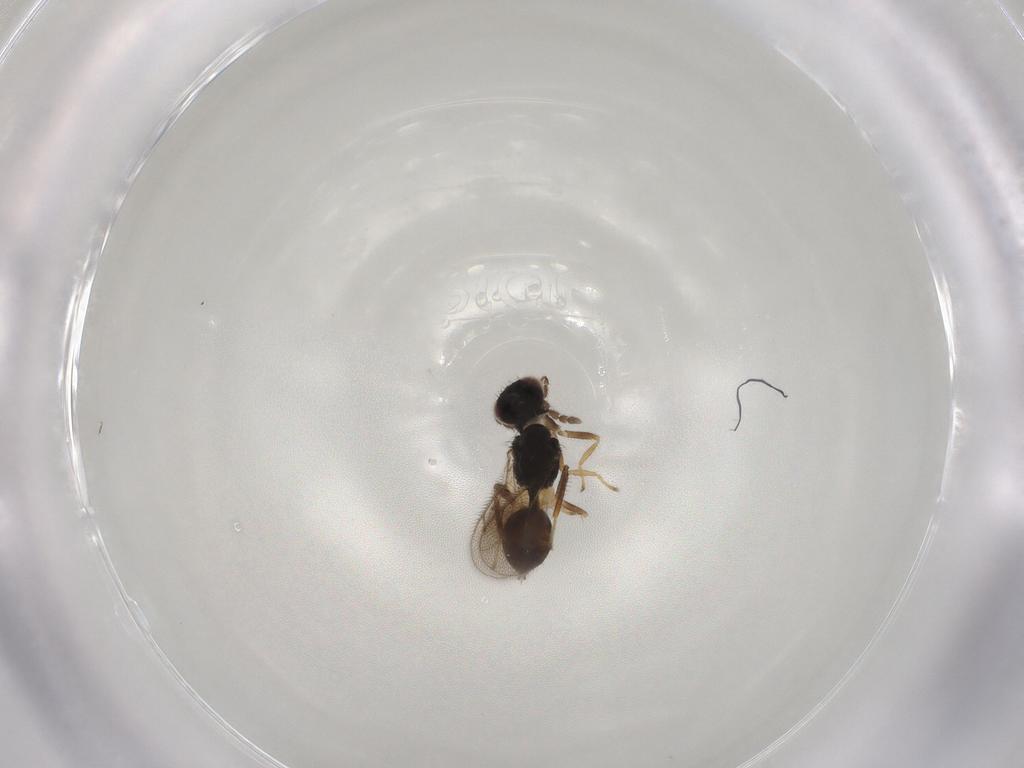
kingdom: Animalia
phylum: Arthropoda
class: Insecta
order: Hymenoptera
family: Eulophidae
